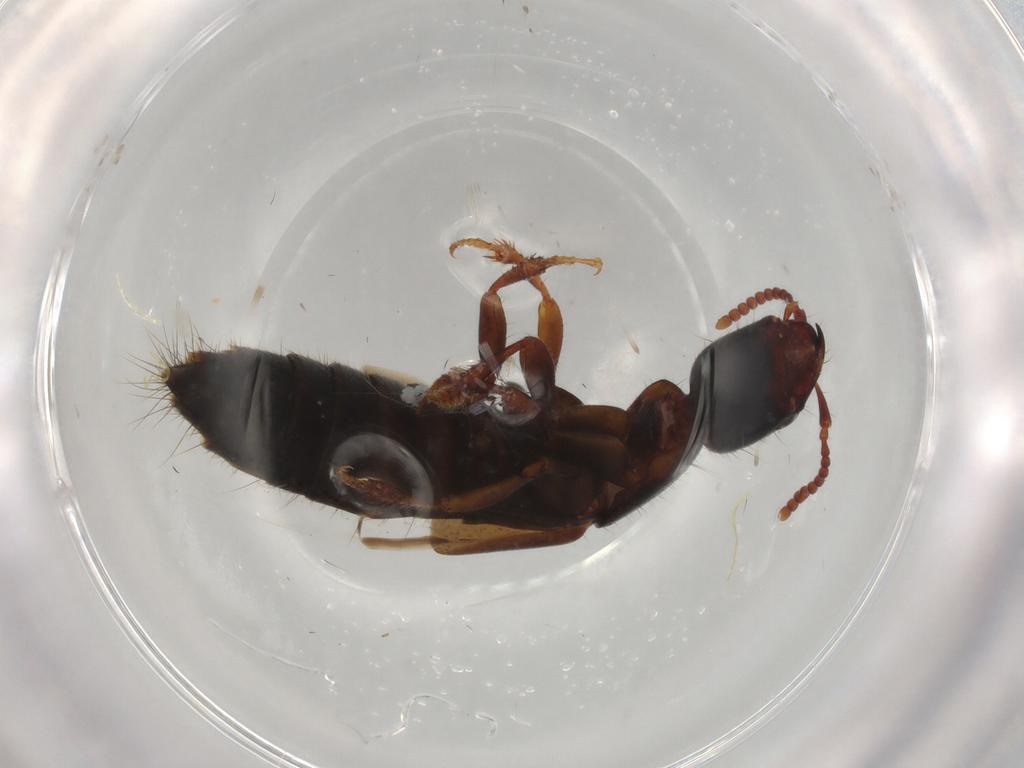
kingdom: Animalia
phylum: Arthropoda
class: Insecta
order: Coleoptera
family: Staphylinidae
